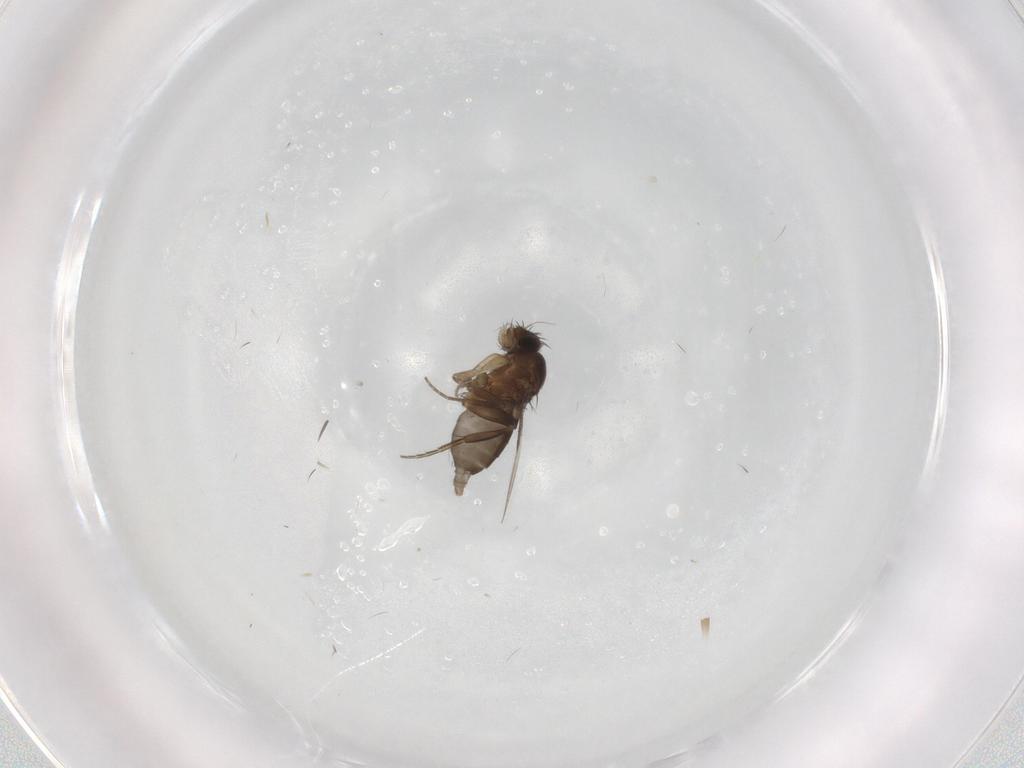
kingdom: Animalia
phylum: Arthropoda
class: Insecta
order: Diptera
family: Phoridae
